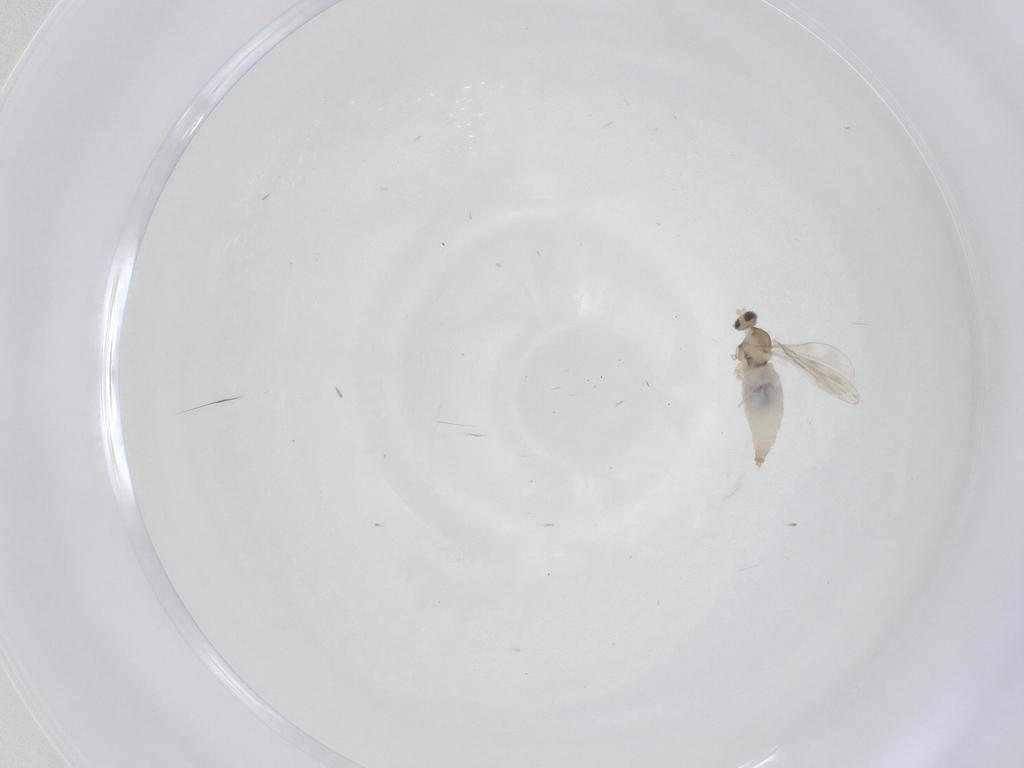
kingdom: Animalia
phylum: Arthropoda
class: Insecta
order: Diptera
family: Cecidomyiidae
